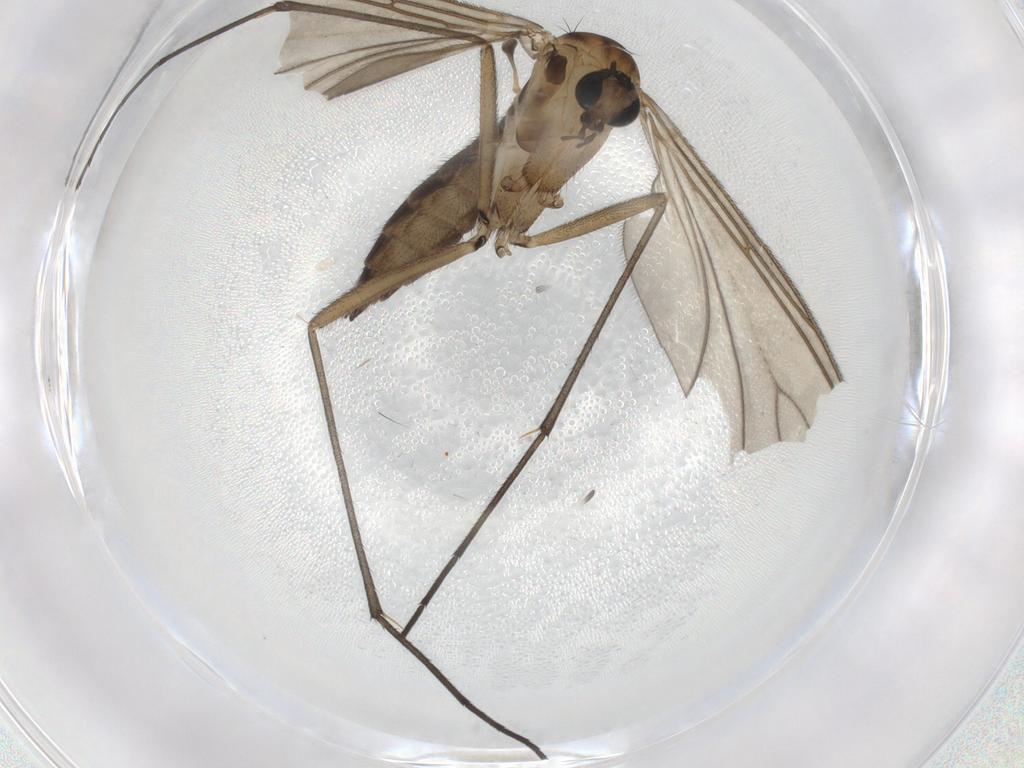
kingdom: Animalia
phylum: Arthropoda
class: Insecta
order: Diptera
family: Sciaridae
